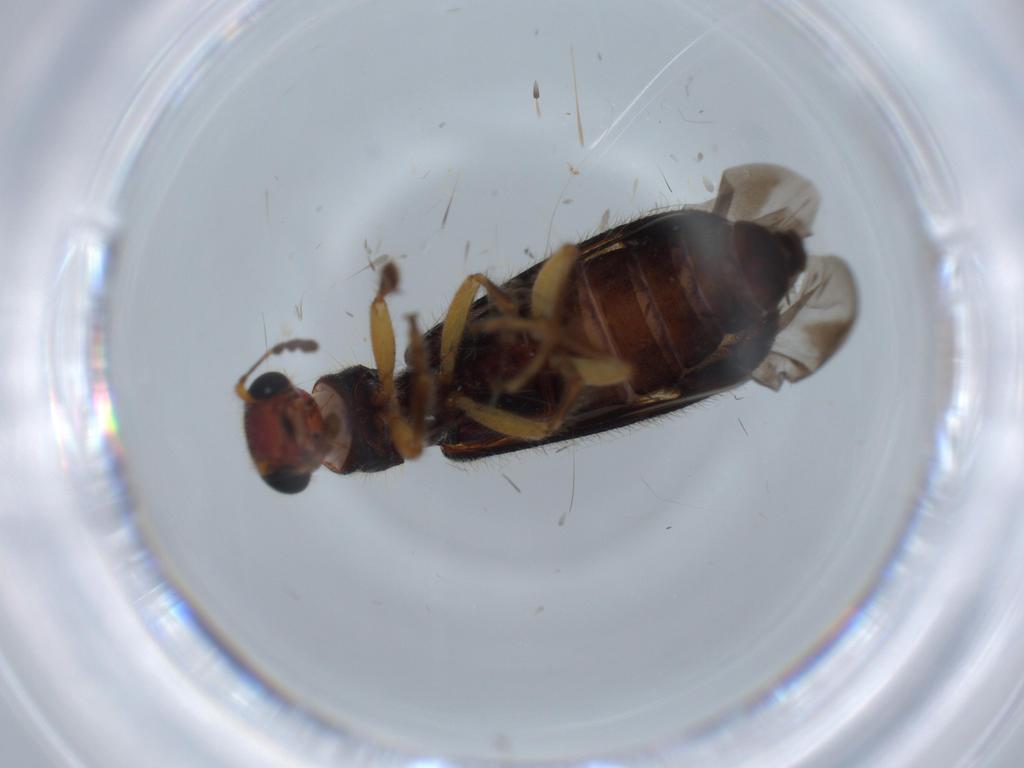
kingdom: Animalia
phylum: Arthropoda
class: Insecta
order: Coleoptera
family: Cleridae
